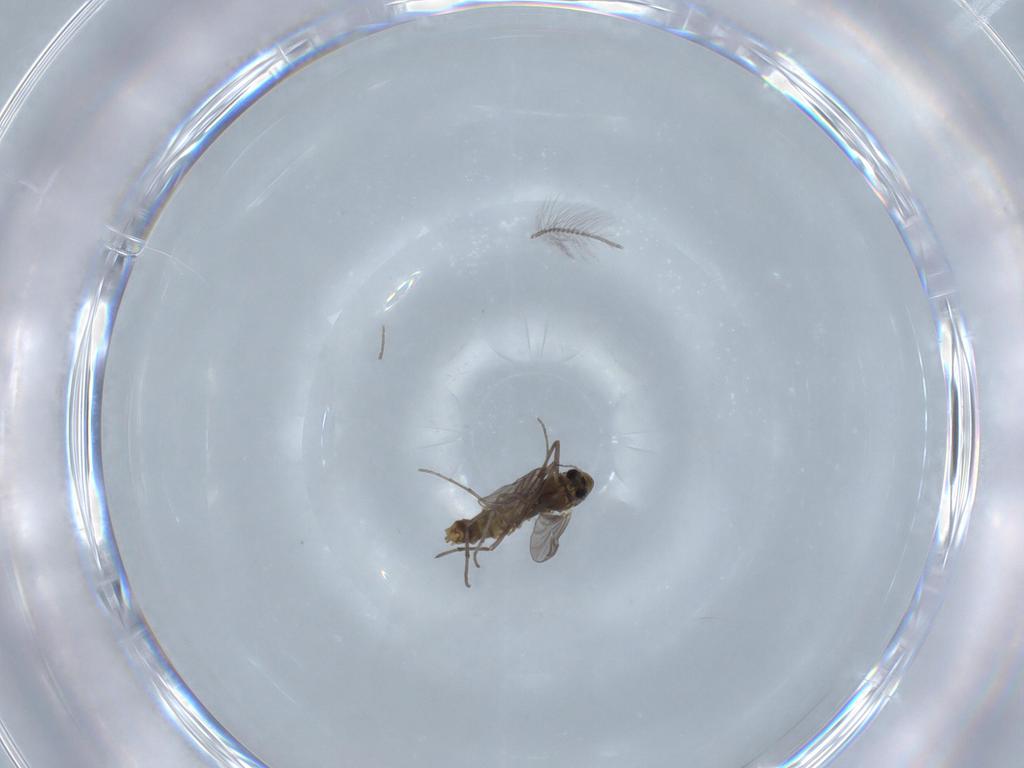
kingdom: Animalia
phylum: Arthropoda
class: Insecta
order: Diptera
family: Chironomidae
